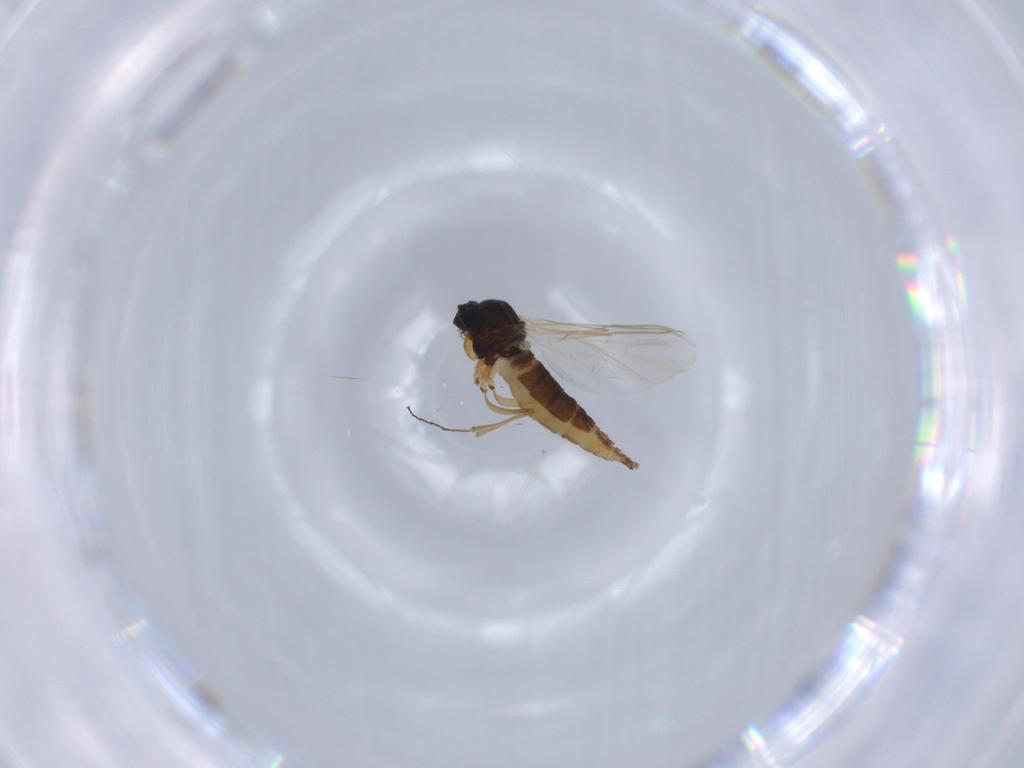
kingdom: Animalia
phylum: Arthropoda
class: Insecta
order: Diptera
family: Sciaridae
